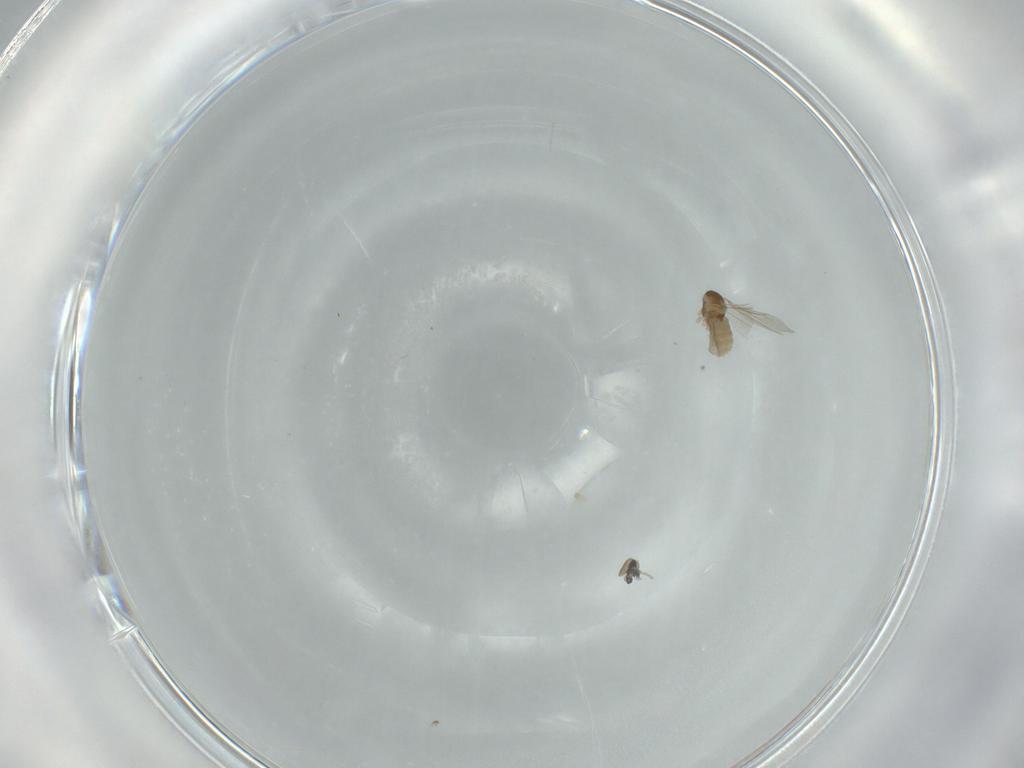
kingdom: Animalia
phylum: Arthropoda
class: Insecta
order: Diptera
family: Cecidomyiidae
